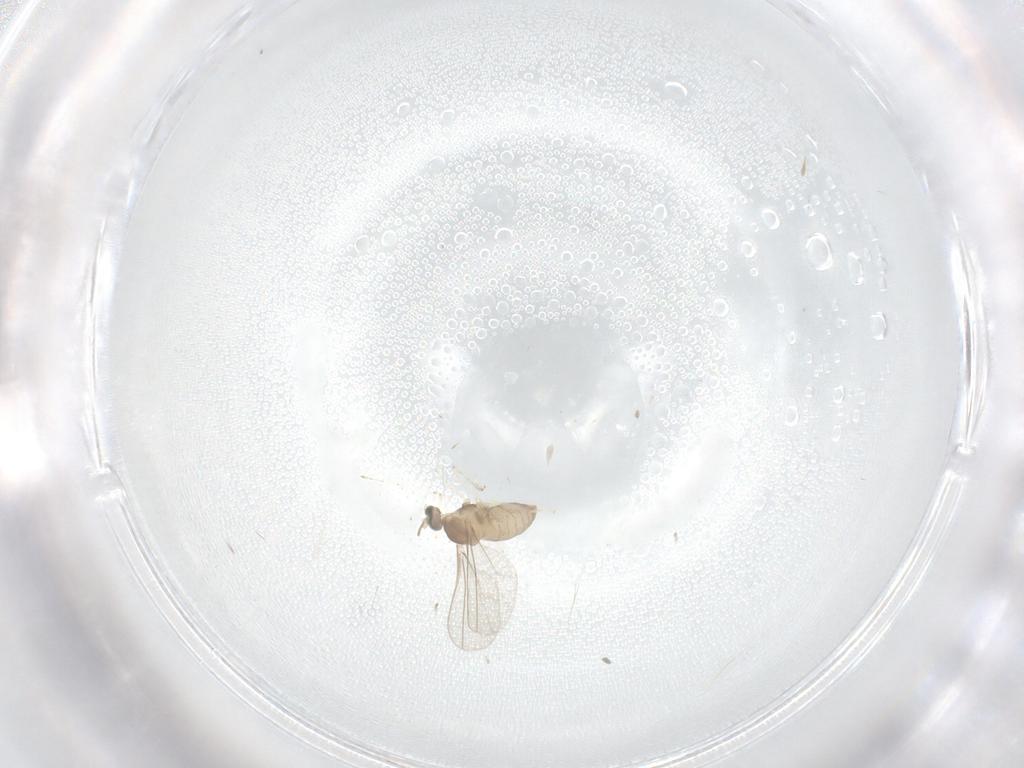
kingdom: Animalia
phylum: Arthropoda
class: Insecta
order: Diptera
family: Cecidomyiidae
